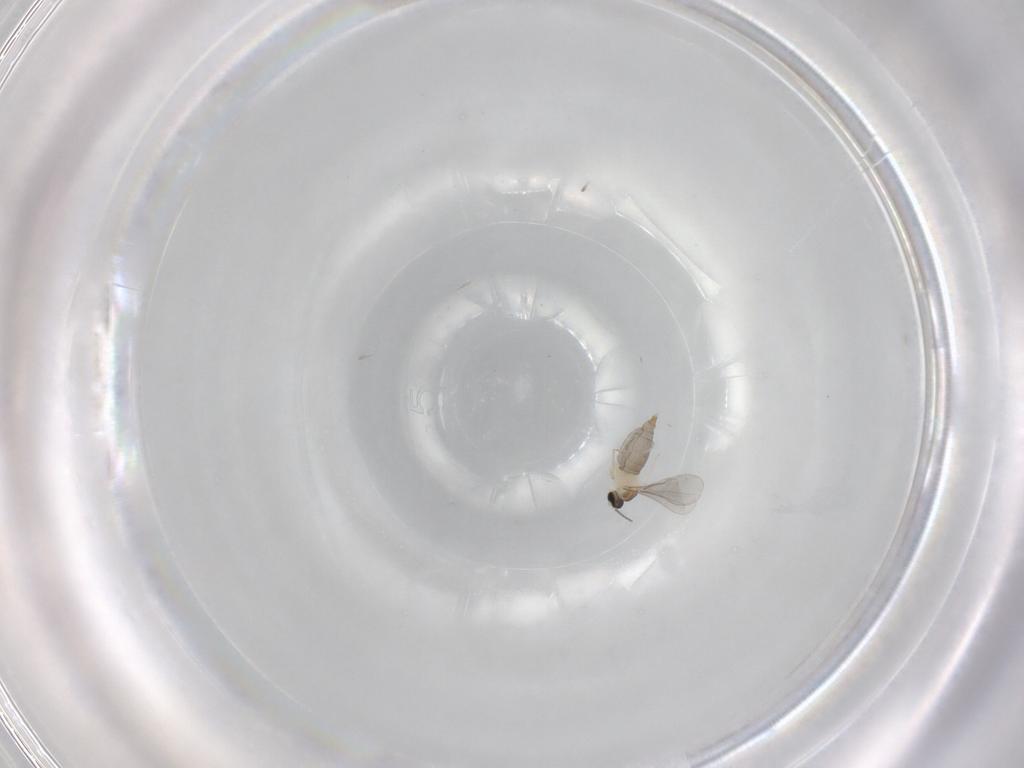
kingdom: Animalia
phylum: Arthropoda
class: Insecta
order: Diptera
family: Cecidomyiidae
